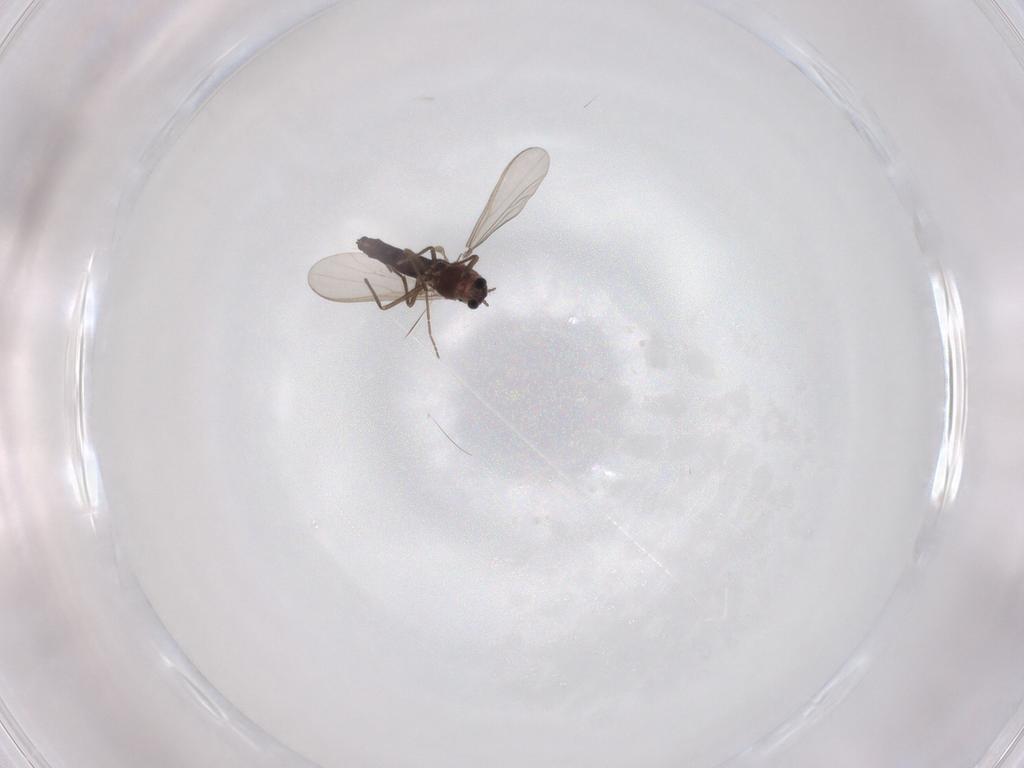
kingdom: Animalia
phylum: Arthropoda
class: Insecta
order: Diptera
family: Chironomidae
